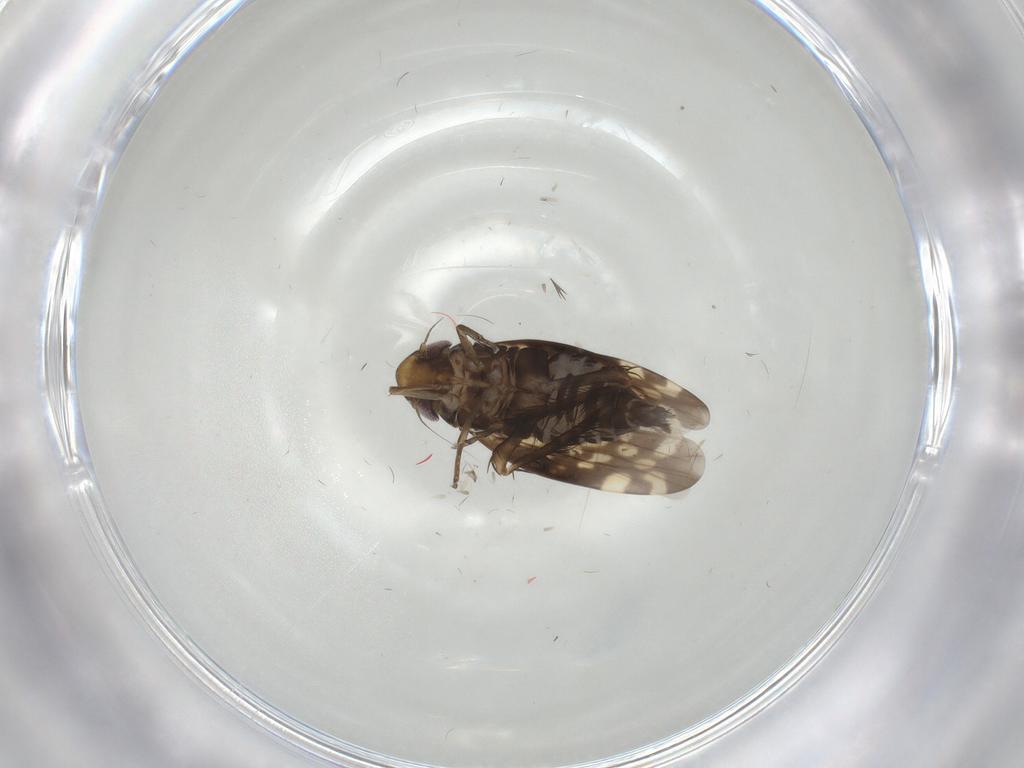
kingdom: Animalia
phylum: Arthropoda
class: Insecta
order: Hemiptera
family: Cicadellidae
